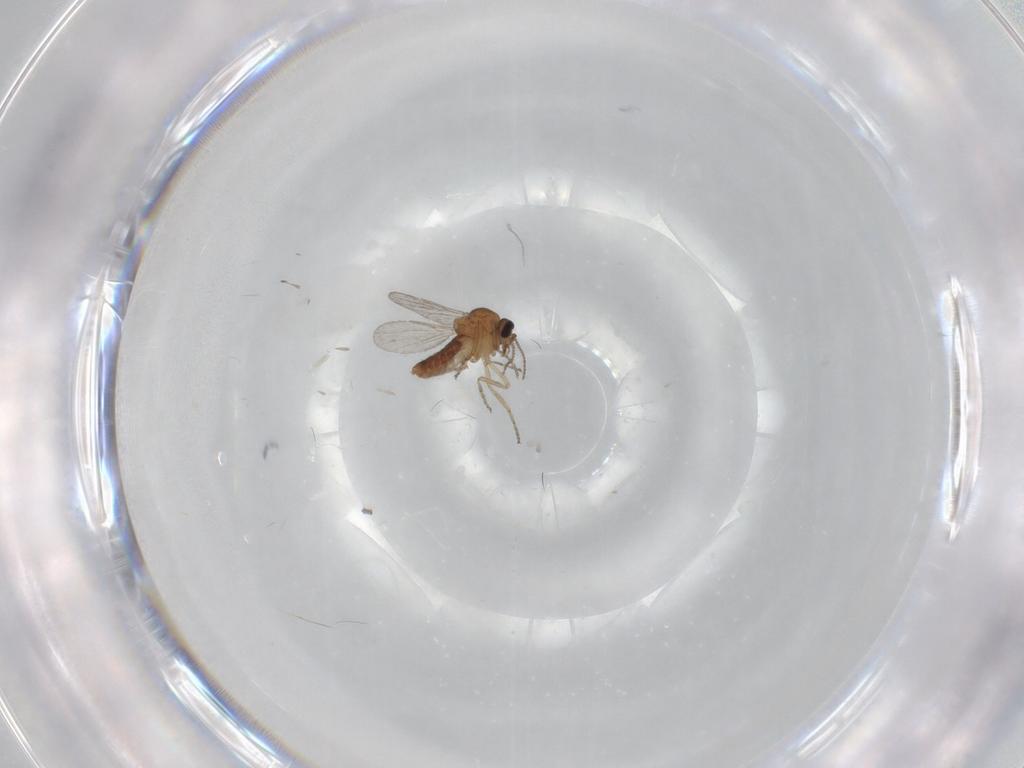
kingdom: Animalia
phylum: Arthropoda
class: Insecta
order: Diptera
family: Ceratopogonidae
